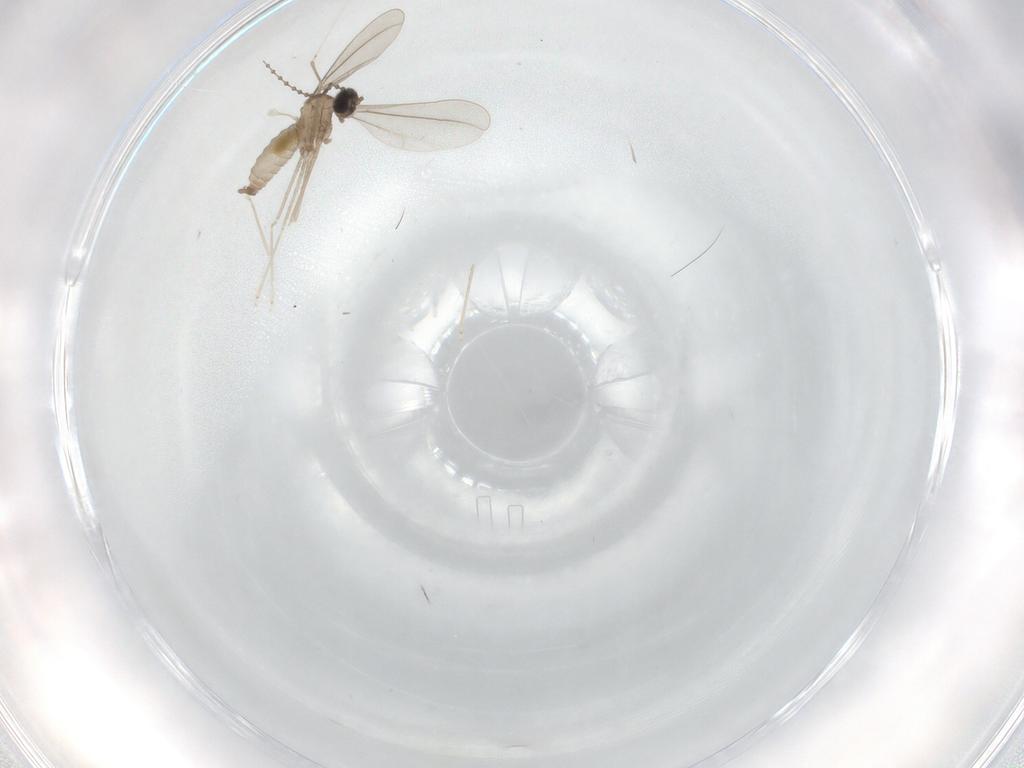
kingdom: Animalia
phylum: Arthropoda
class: Insecta
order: Diptera
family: Cecidomyiidae
